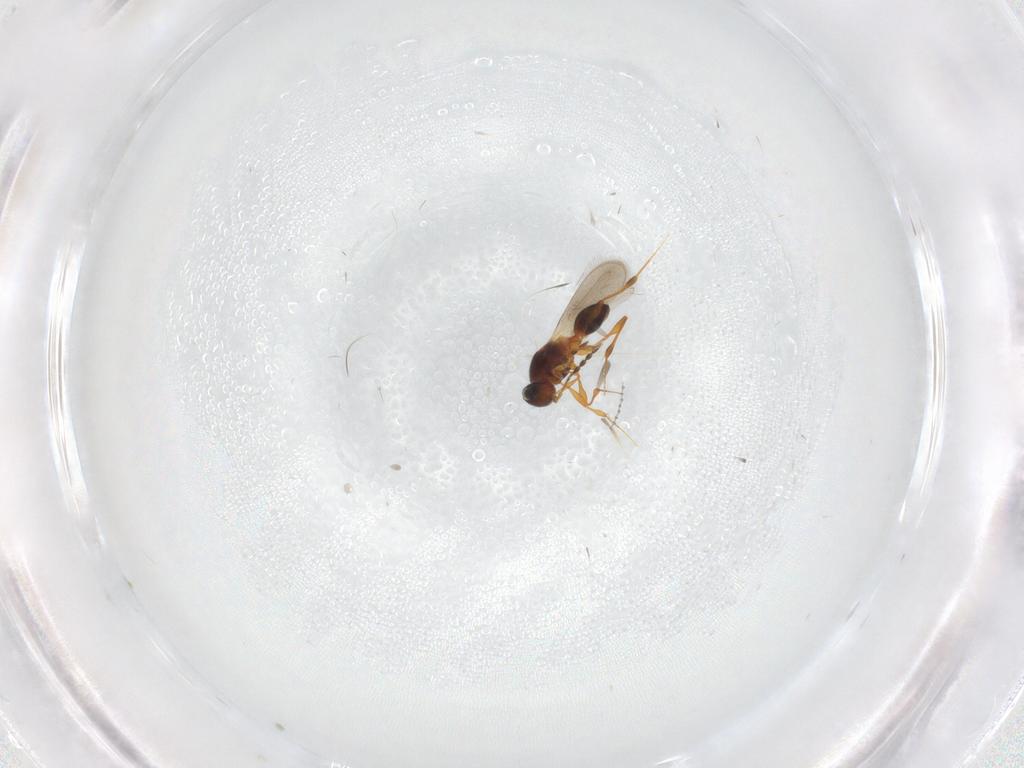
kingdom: Animalia
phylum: Arthropoda
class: Insecta
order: Hymenoptera
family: Platygastridae
